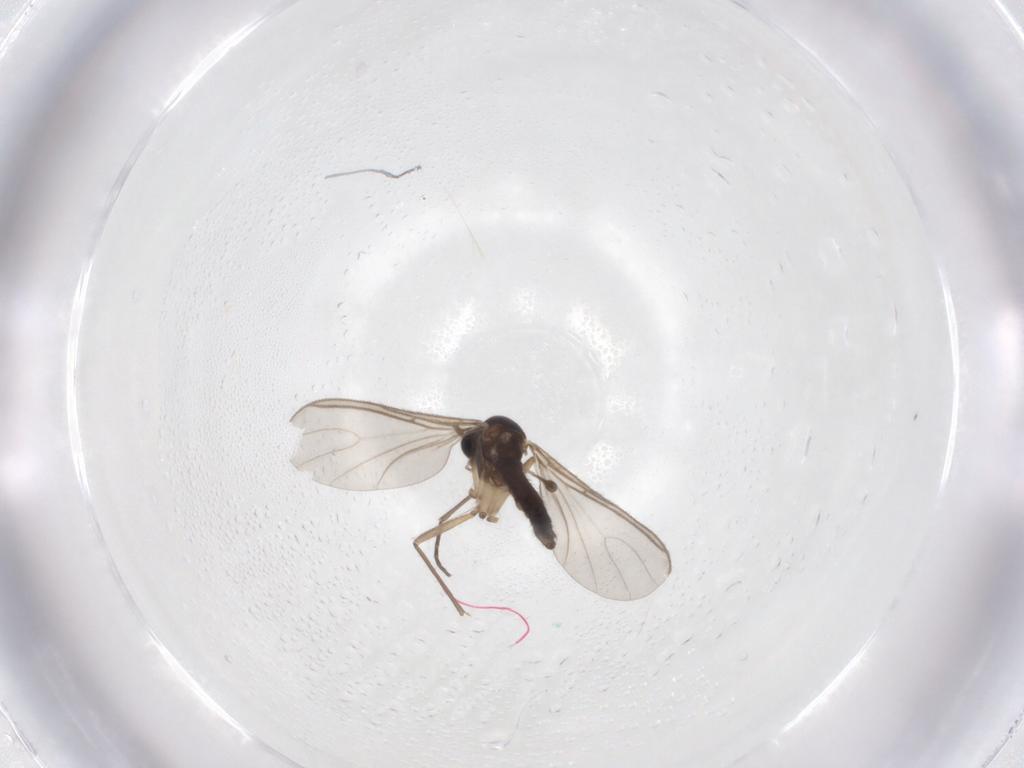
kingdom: Animalia
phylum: Arthropoda
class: Insecta
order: Diptera
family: Sciaridae
